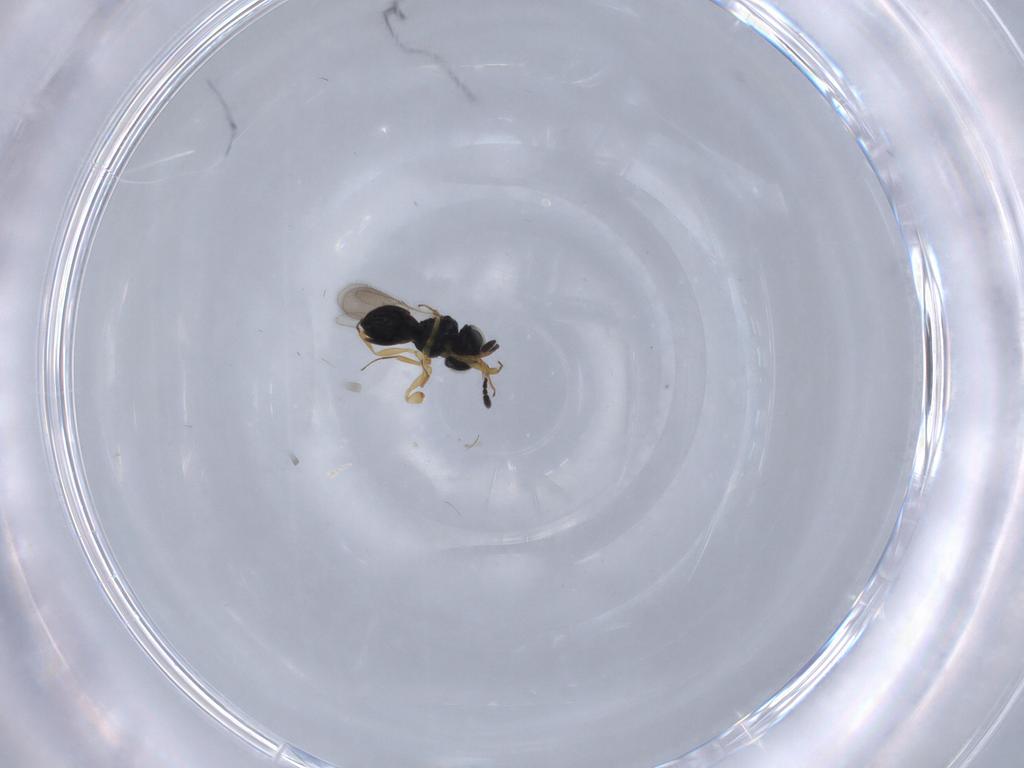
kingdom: Animalia
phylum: Arthropoda
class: Insecta
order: Hymenoptera
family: Scelionidae
